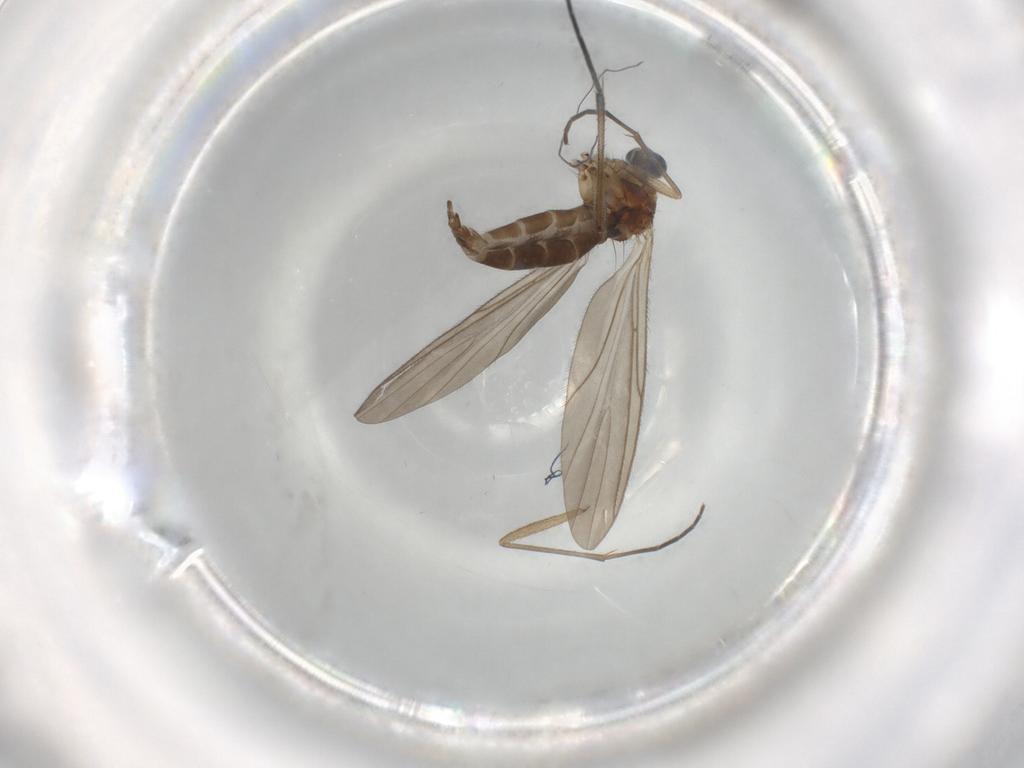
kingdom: Animalia
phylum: Arthropoda
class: Insecta
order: Diptera
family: Sciaridae
